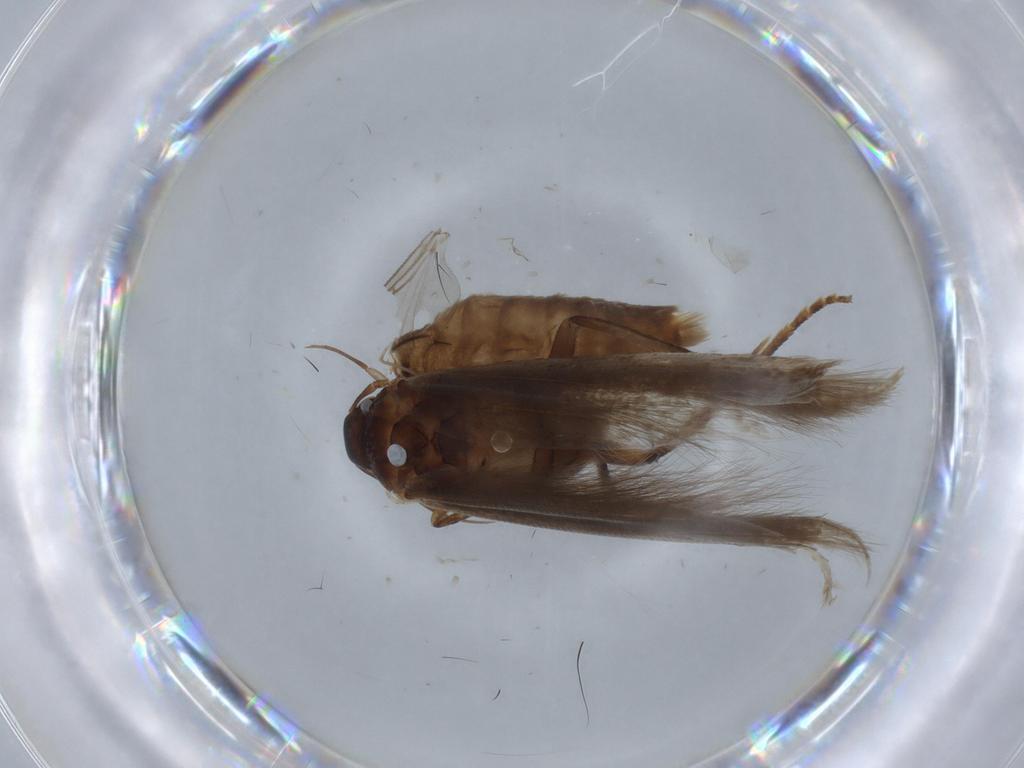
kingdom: Animalia
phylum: Arthropoda
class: Insecta
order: Lepidoptera
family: Gelechiidae
